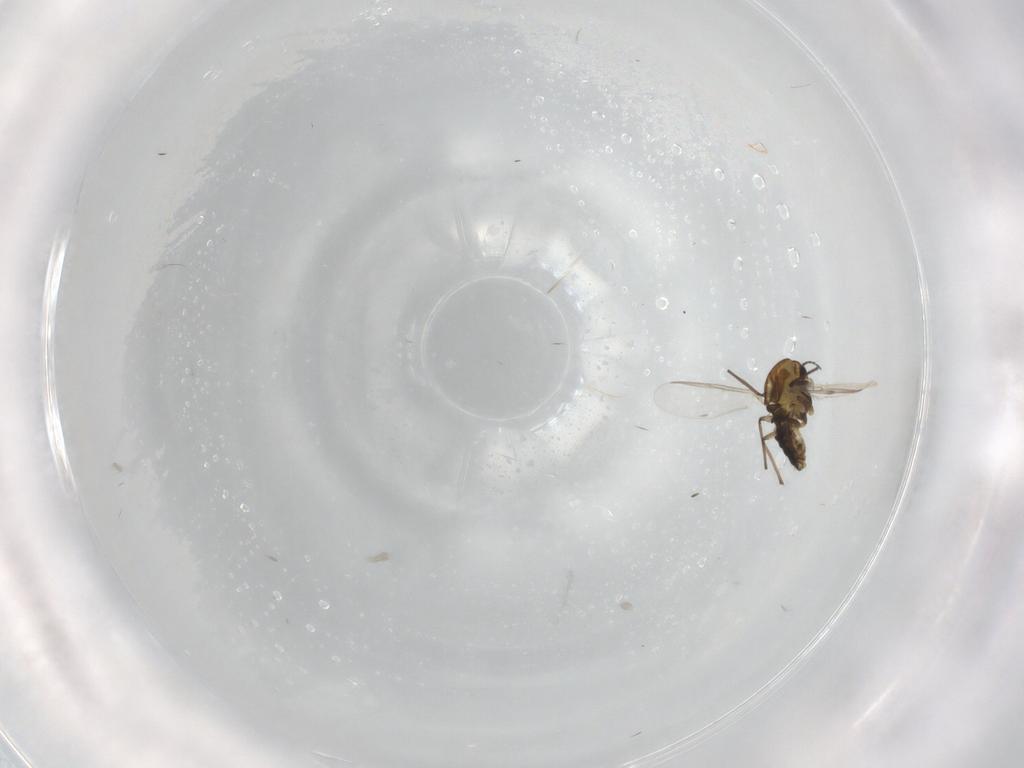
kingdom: Animalia
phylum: Arthropoda
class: Insecta
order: Diptera
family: Chironomidae
